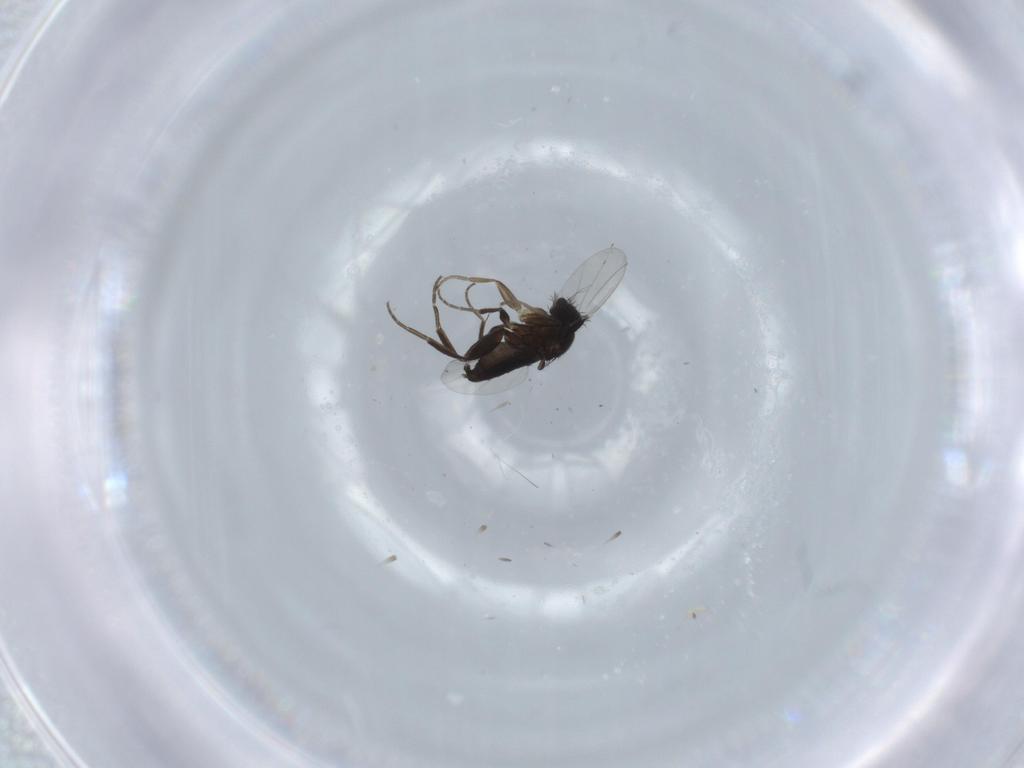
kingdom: Animalia
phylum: Arthropoda
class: Insecta
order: Diptera
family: Phoridae
